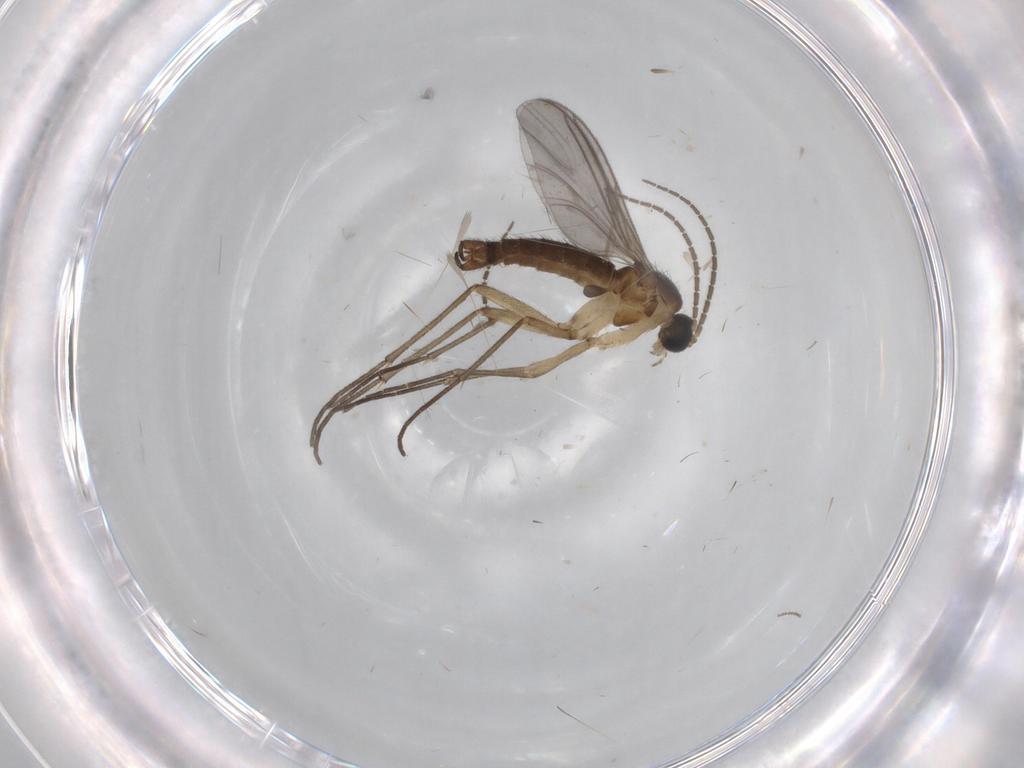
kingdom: Animalia
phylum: Arthropoda
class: Insecta
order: Diptera
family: Sciaridae
